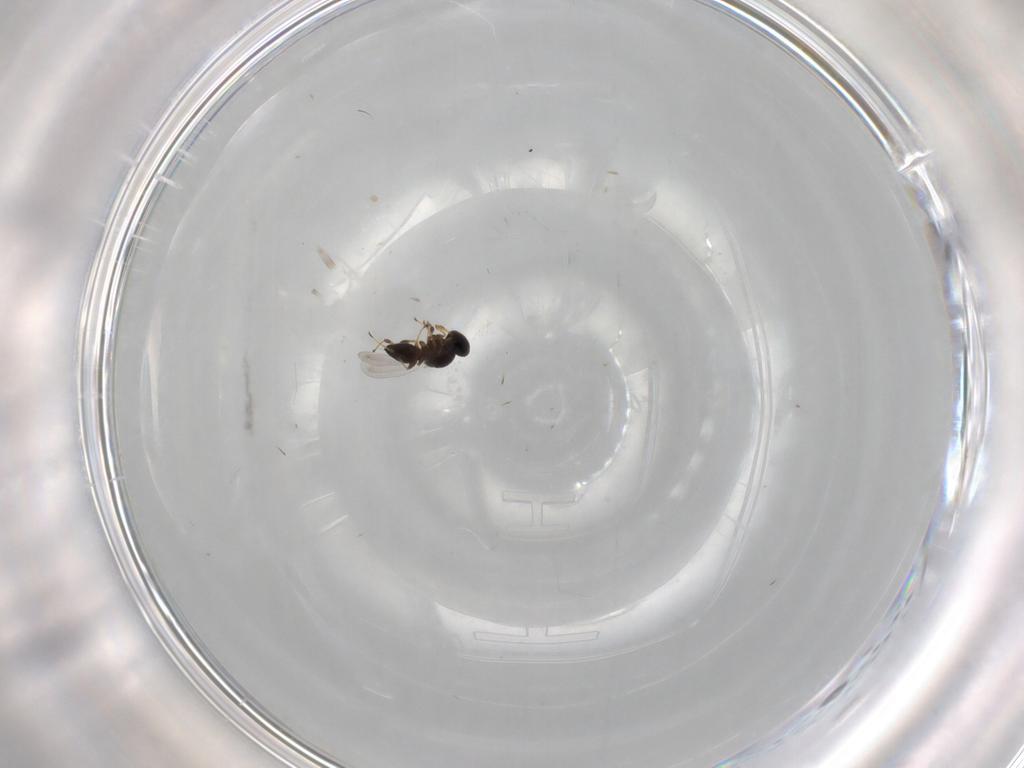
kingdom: Animalia
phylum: Arthropoda
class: Insecta
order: Hymenoptera
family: Platygastridae
